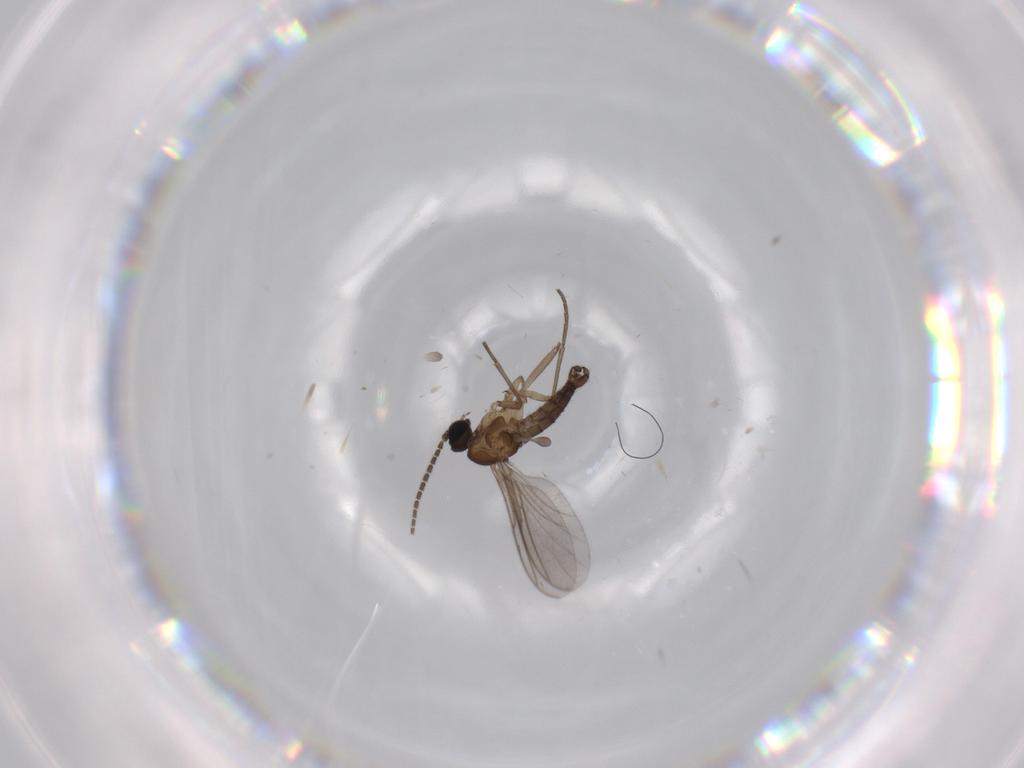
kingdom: Animalia
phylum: Arthropoda
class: Insecta
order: Diptera
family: Sciaridae
